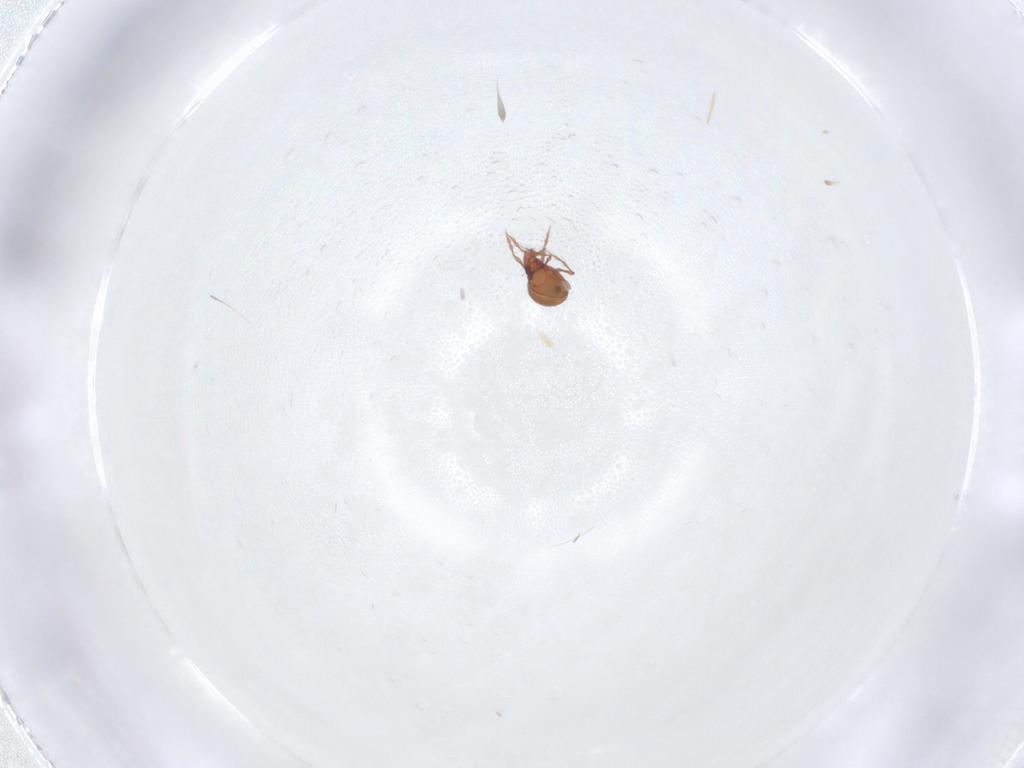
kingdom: Animalia
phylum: Arthropoda
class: Arachnida
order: Sarcoptiformes
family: Oppiidae
